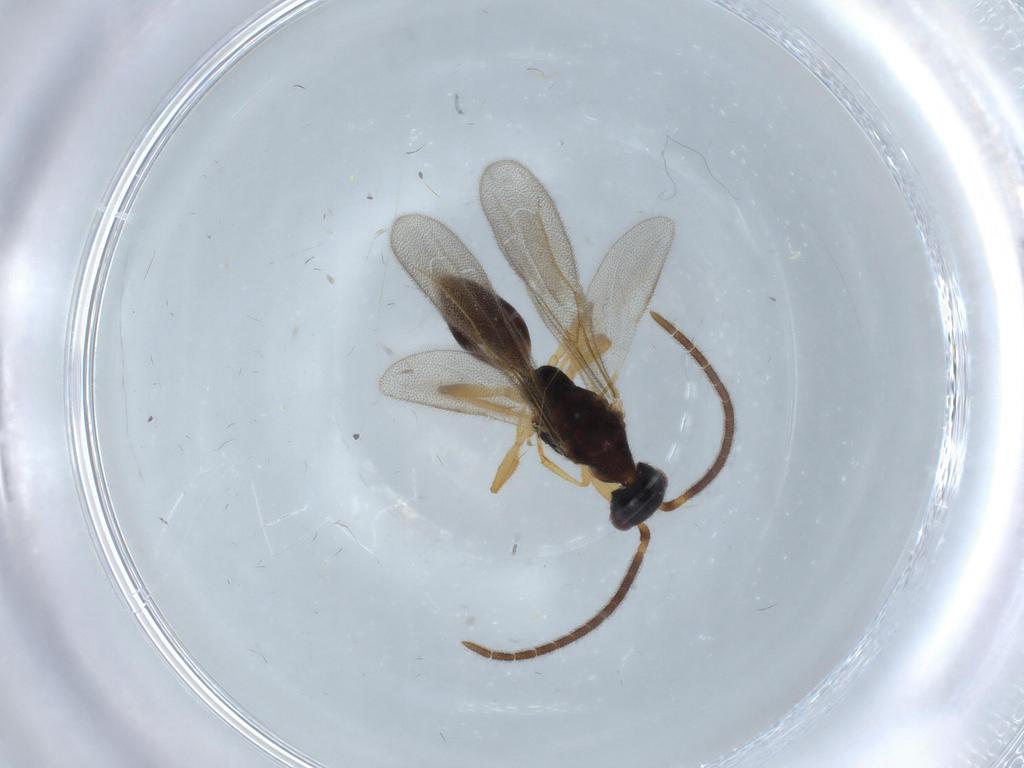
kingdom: Animalia
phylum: Arthropoda
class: Insecta
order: Hymenoptera
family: Bethylidae
